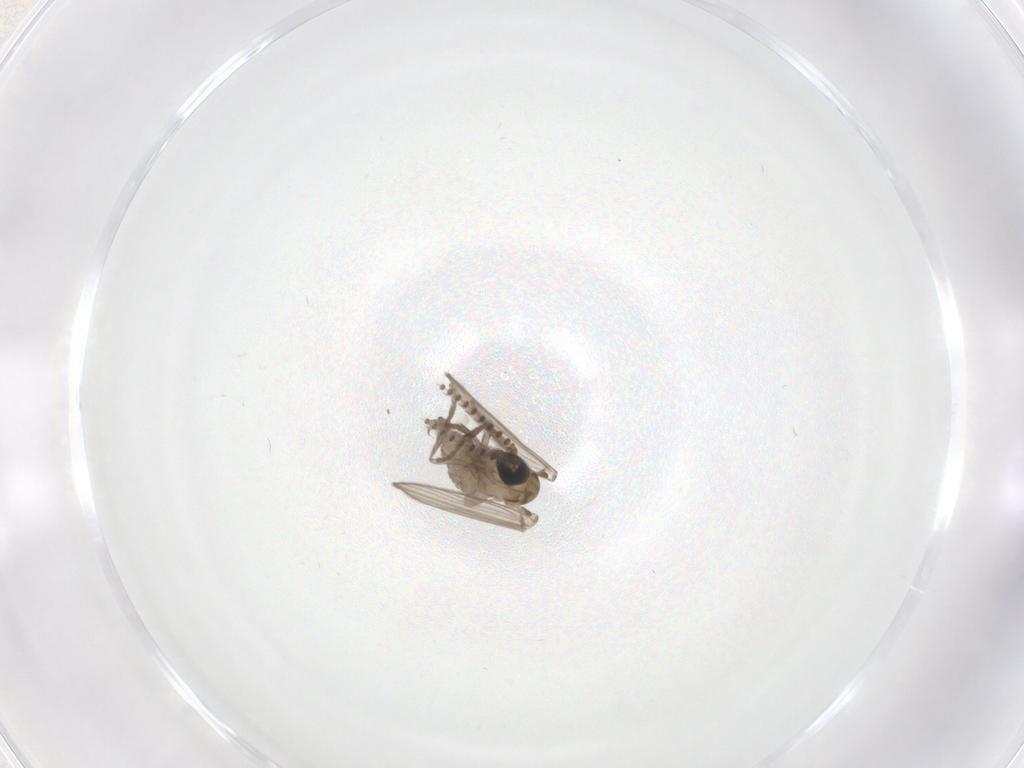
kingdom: Animalia
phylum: Arthropoda
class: Insecta
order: Diptera
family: Psychodidae
